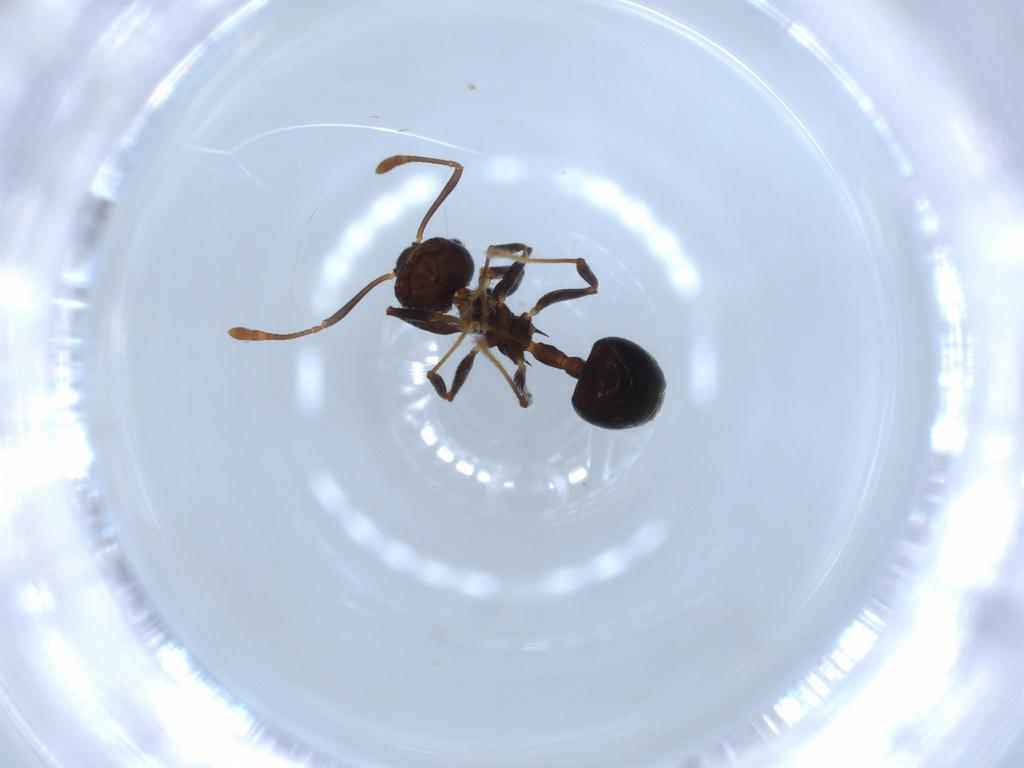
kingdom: Animalia
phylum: Arthropoda
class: Insecta
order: Hymenoptera
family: Formicidae
